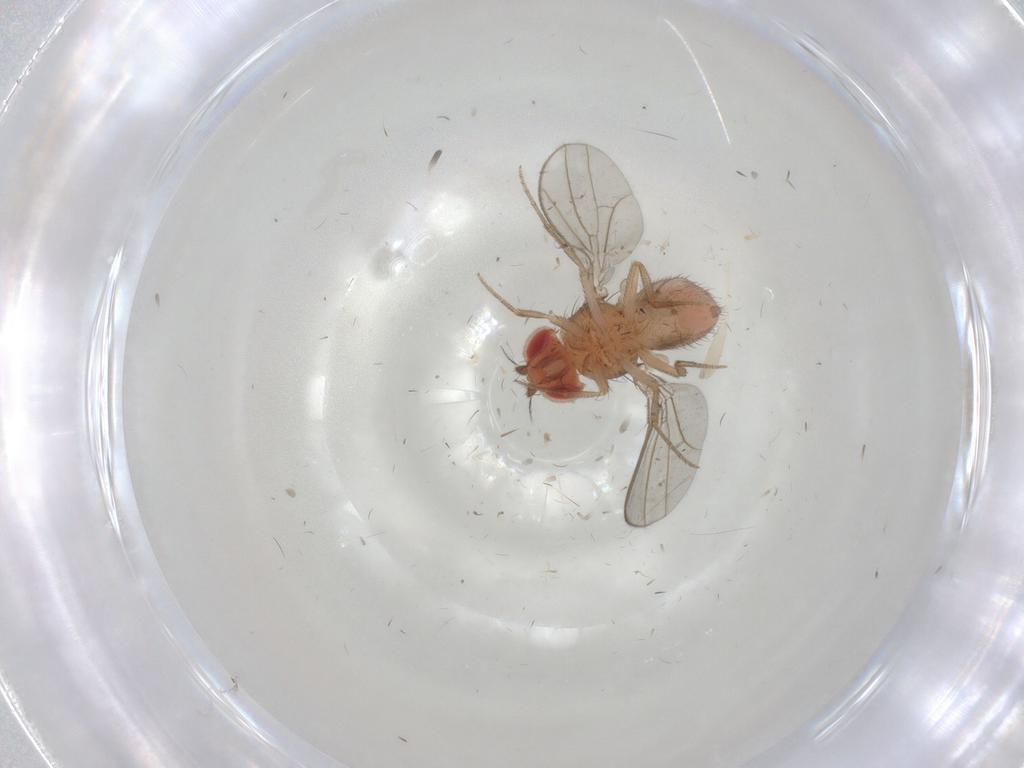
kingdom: Animalia
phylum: Arthropoda
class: Insecta
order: Diptera
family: Drosophilidae
